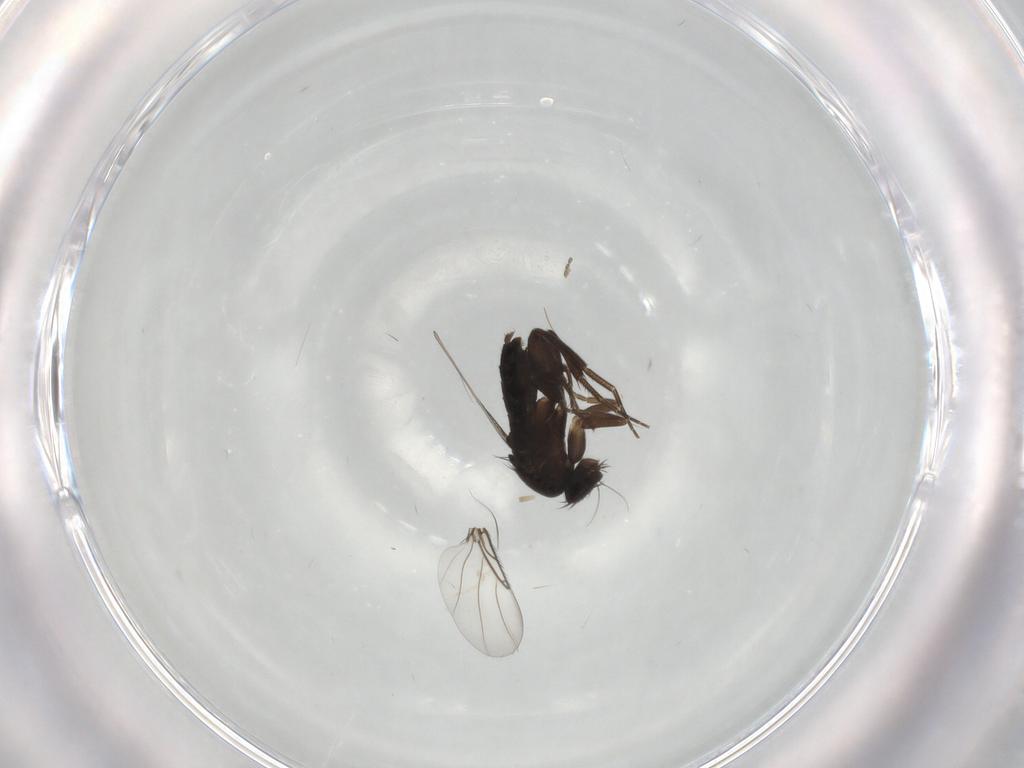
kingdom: Animalia
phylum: Arthropoda
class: Insecta
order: Diptera
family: Phoridae
